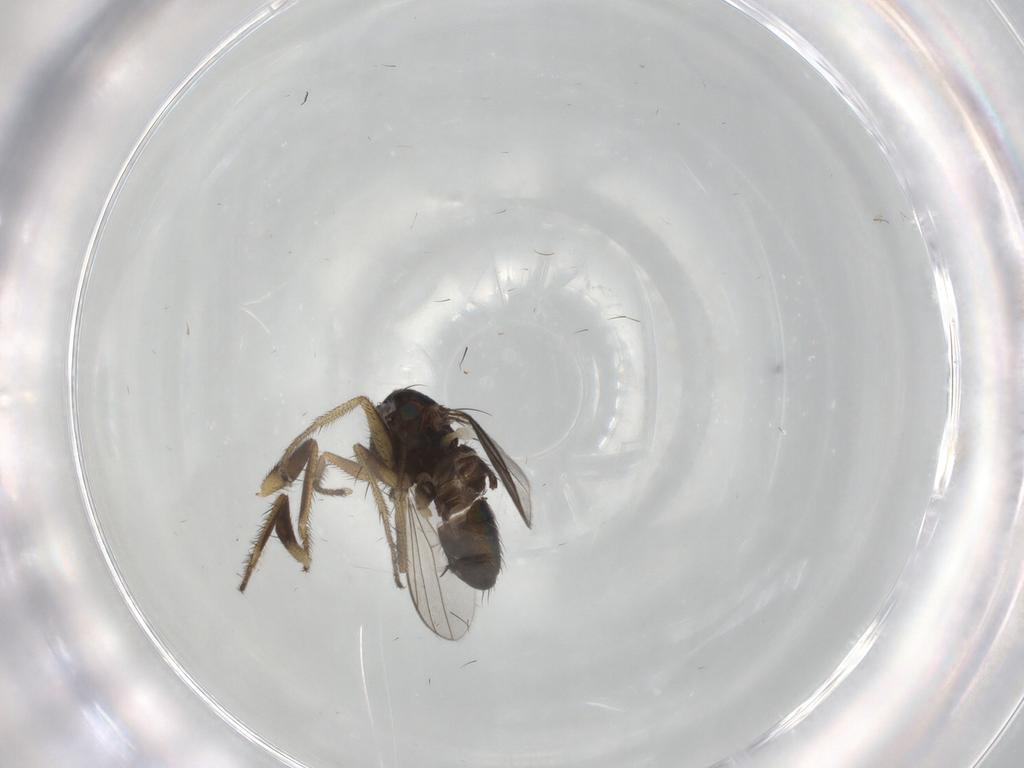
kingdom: Animalia
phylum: Arthropoda
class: Insecta
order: Diptera
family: Dolichopodidae
